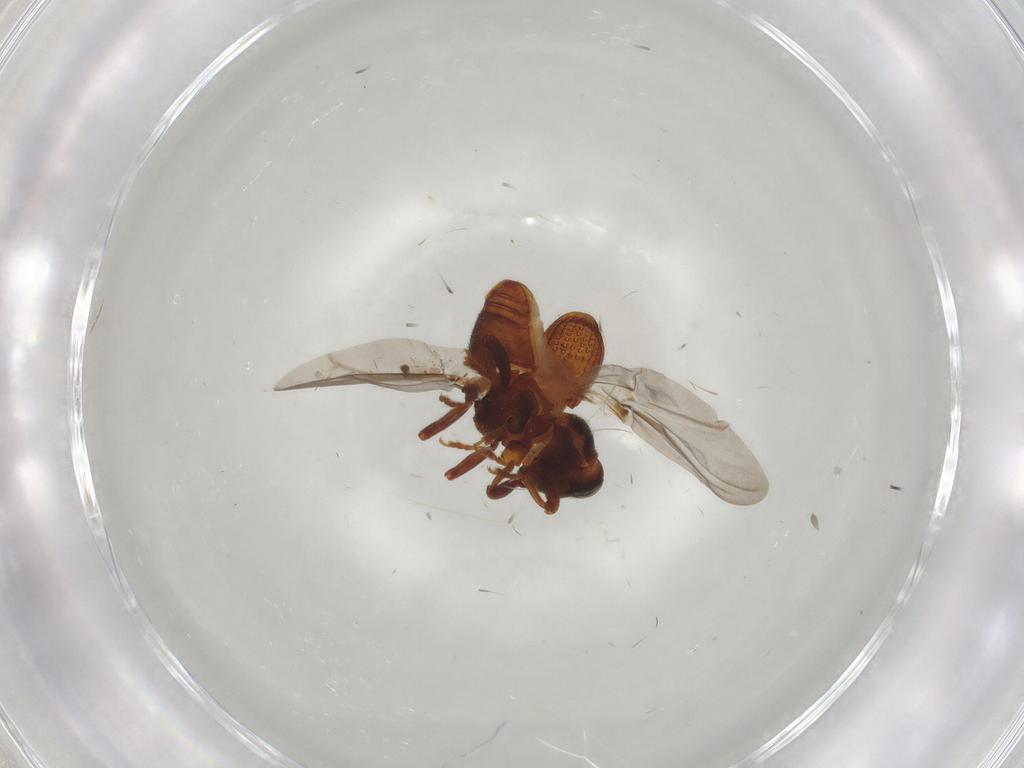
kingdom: Animalia
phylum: Arthropoda
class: Insecta
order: Coleoptera
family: Curculionidae
